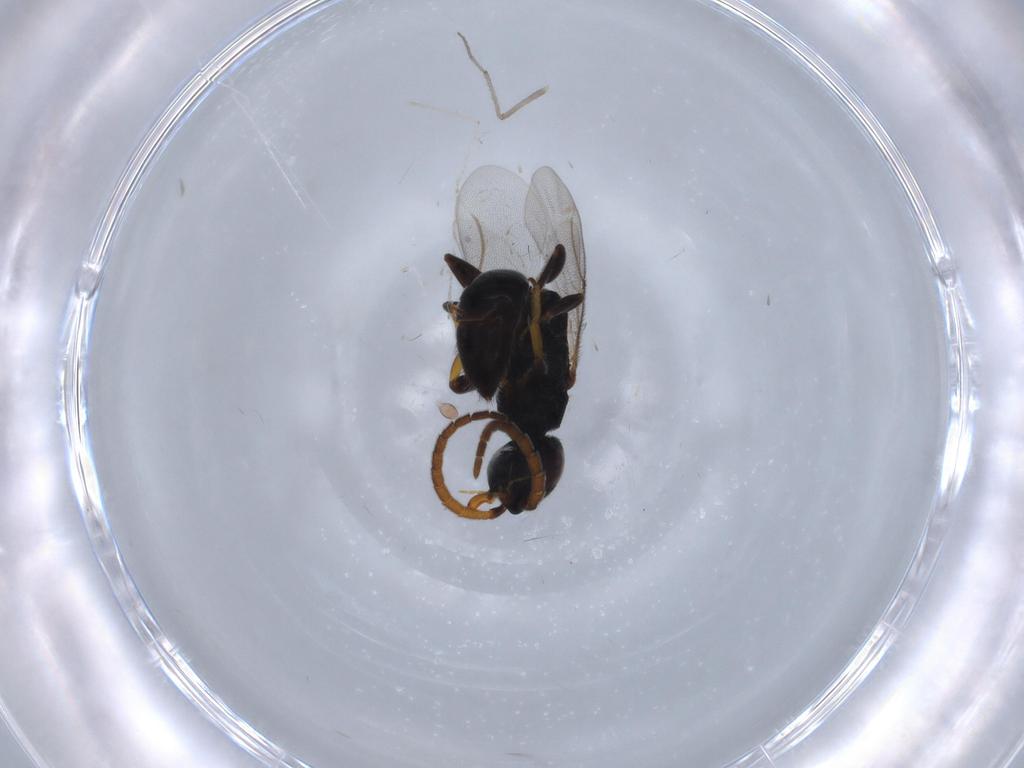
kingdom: Animalia
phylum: Arthropoda
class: Insecta
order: Hymenoptera
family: Bethylidae
